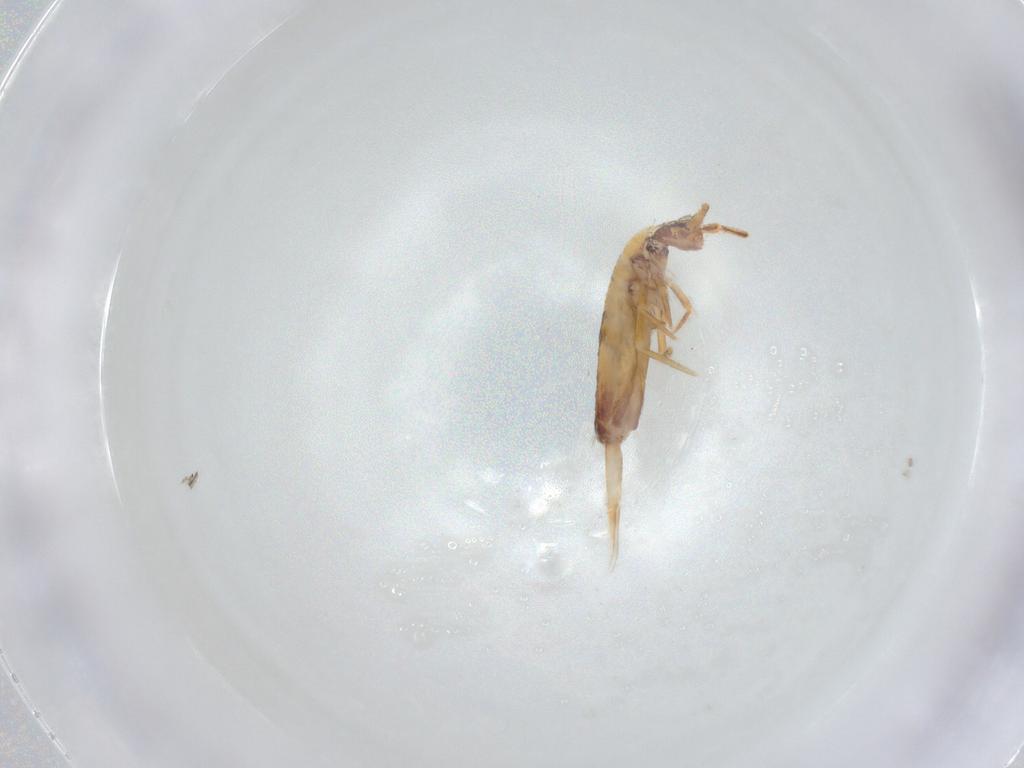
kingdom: Animalia
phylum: Arthropoda
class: Collembola
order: Entomobryomorpha
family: Entomobryidae
